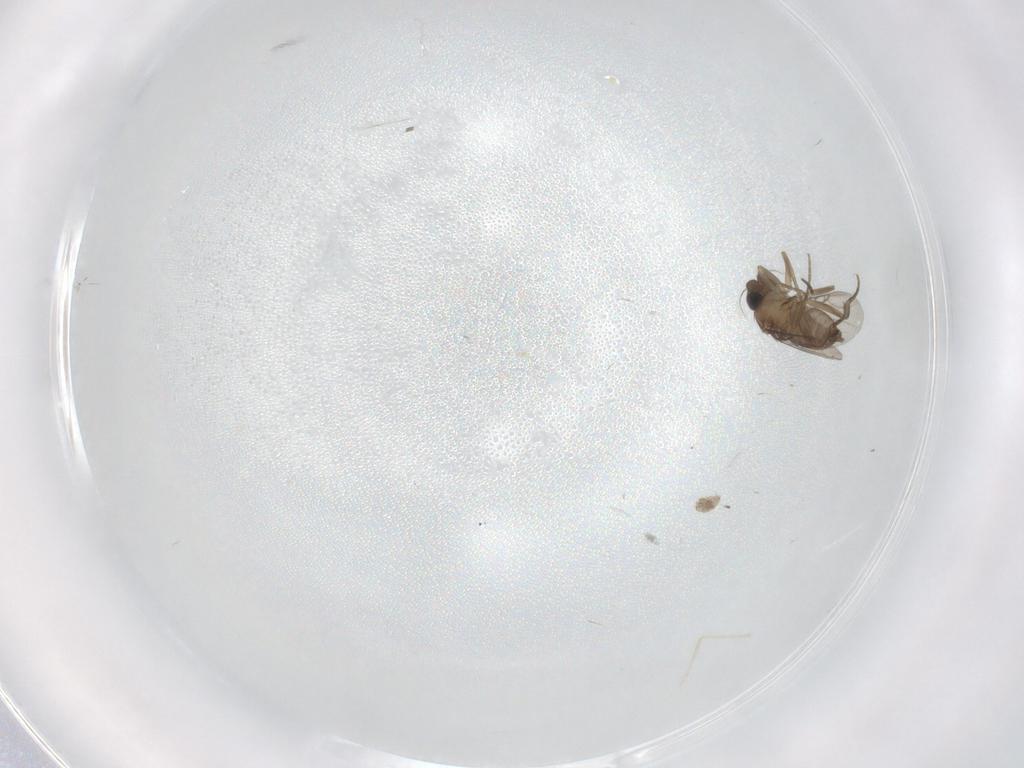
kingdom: Animalia
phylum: Arthropoda
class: Insecta
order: Diptera
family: Phoridae
